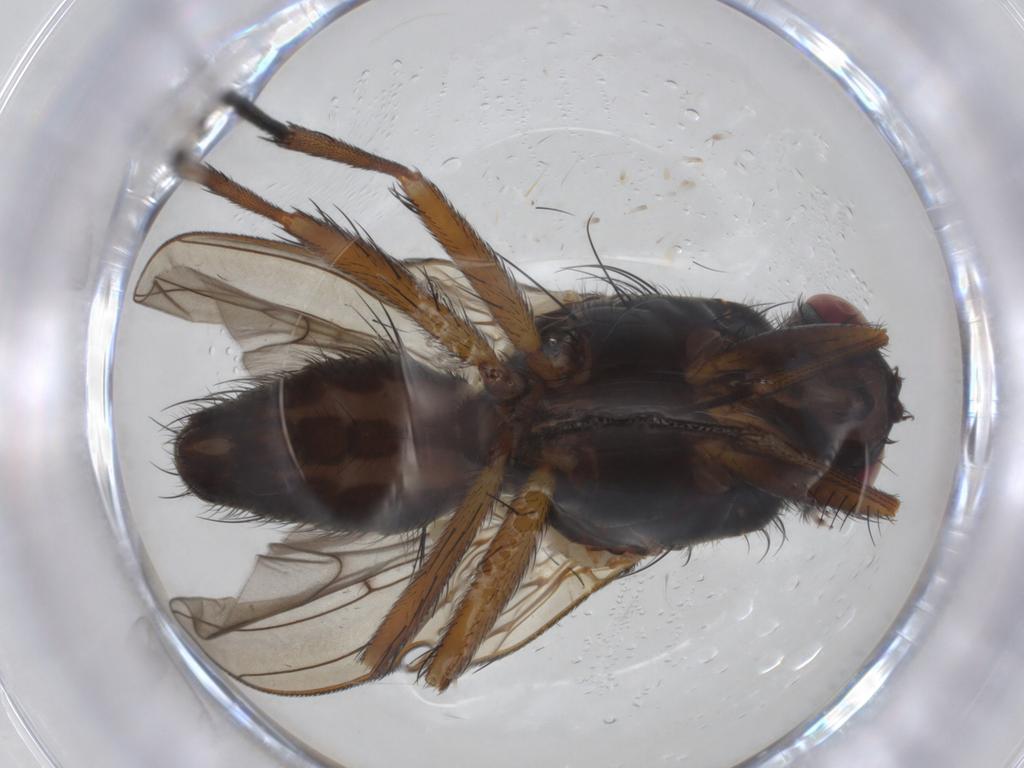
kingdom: Animalia
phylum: Arthropoda
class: Insecta
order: Diptera
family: Anthomyiidae
